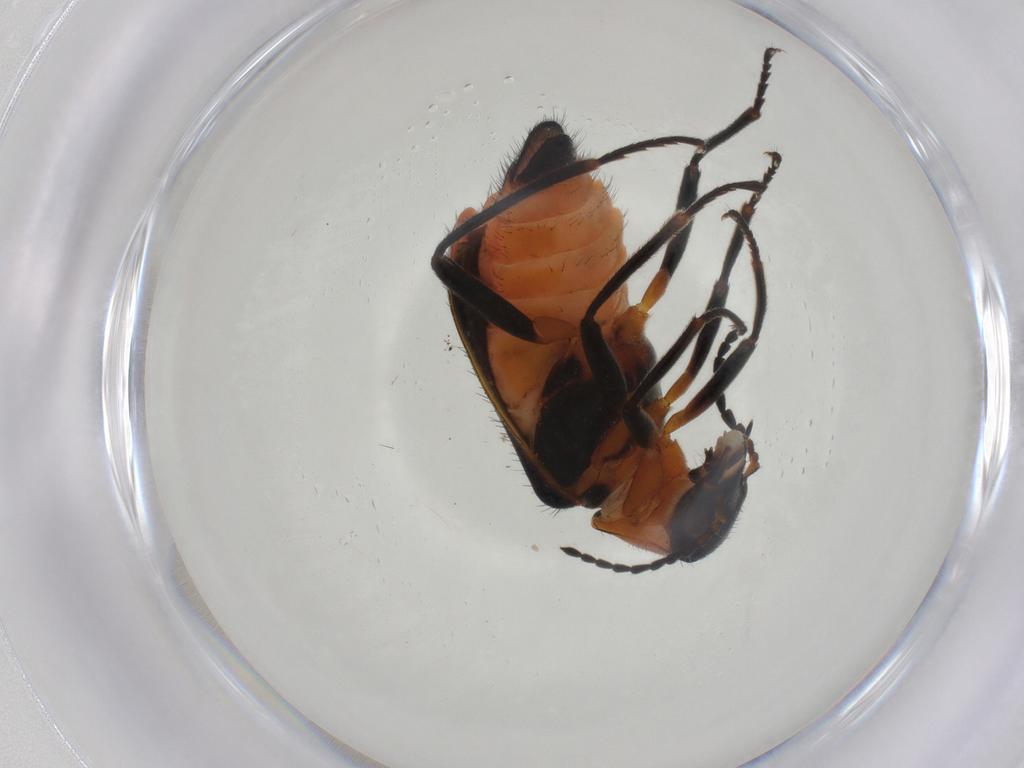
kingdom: Animalia
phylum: Arthropoda
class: Insecta
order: Coleoptera
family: Melyridae
